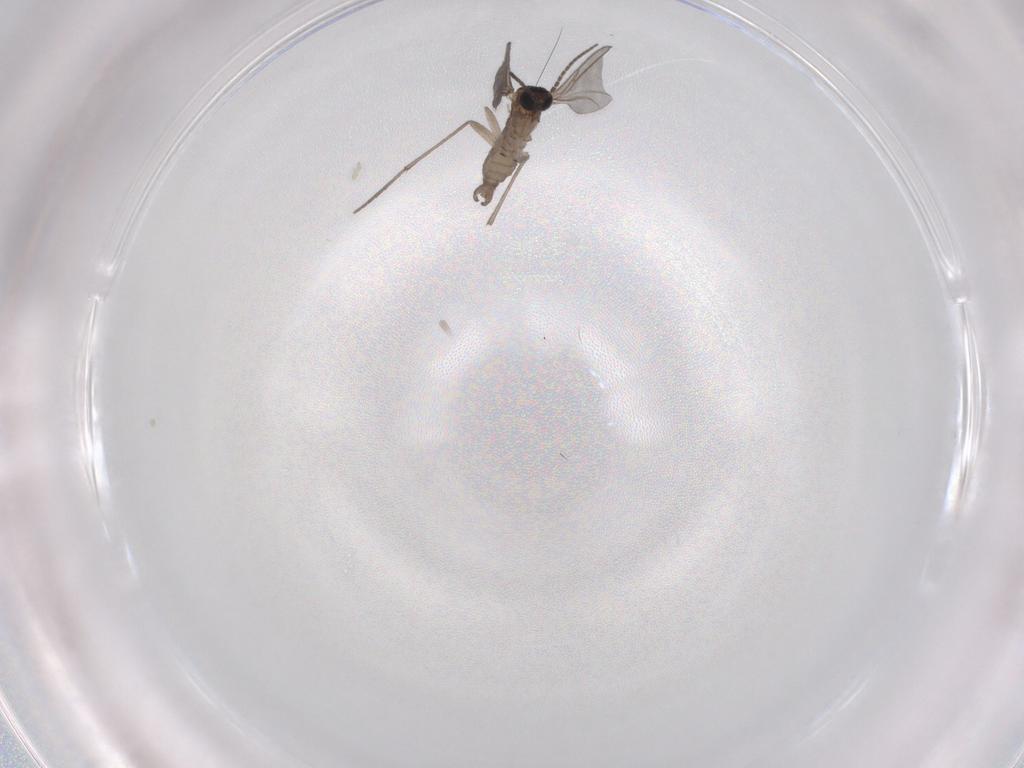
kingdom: Animalia
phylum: Arthropoda
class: Insecta
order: Diptera
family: Sciaridae
